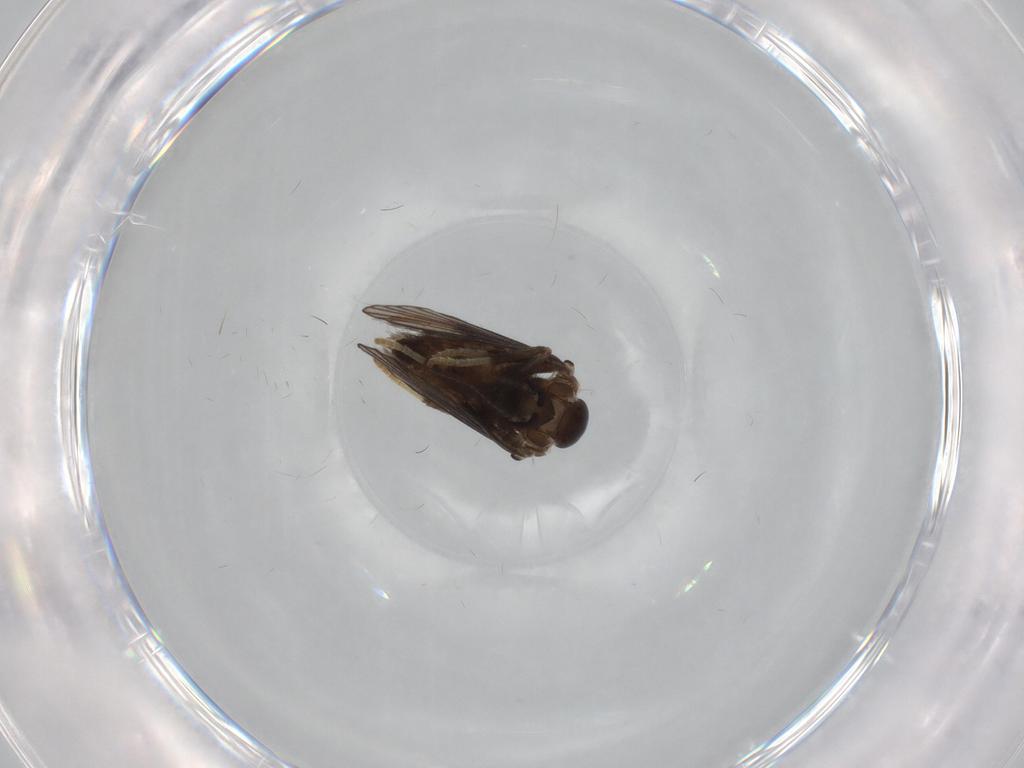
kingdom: Animalia
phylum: Arthropoda
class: Insecta
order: Diptera
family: Psychodidae
